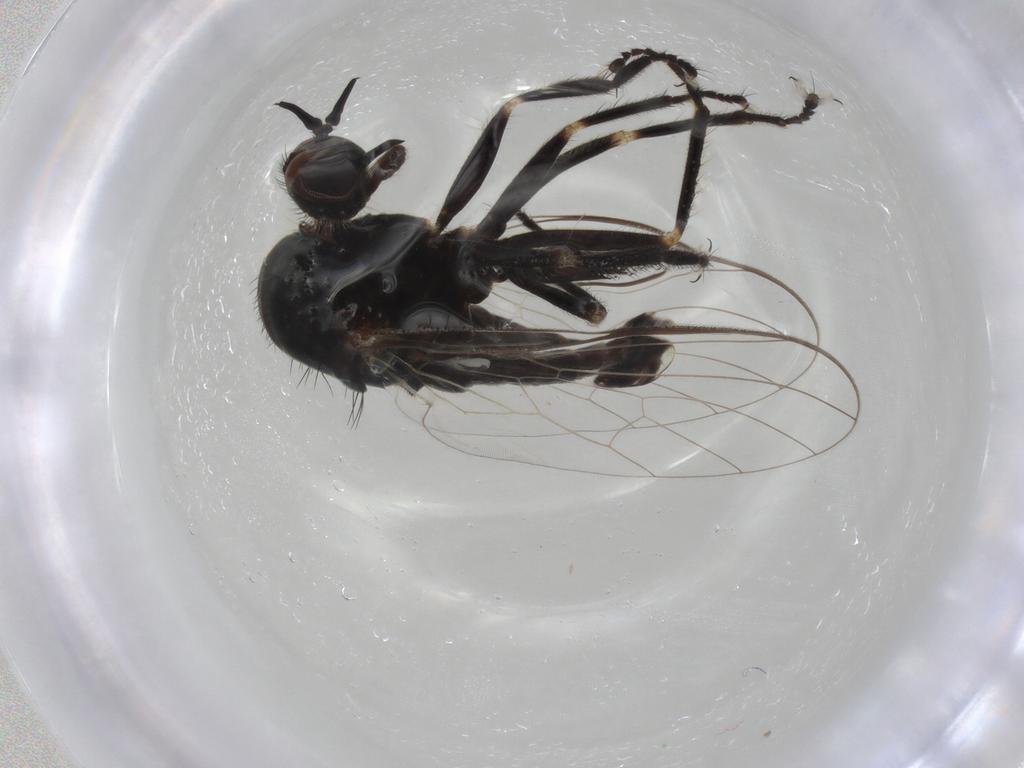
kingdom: Animalia
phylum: Arthropoda
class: Insecta
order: Diptera
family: Empididae
